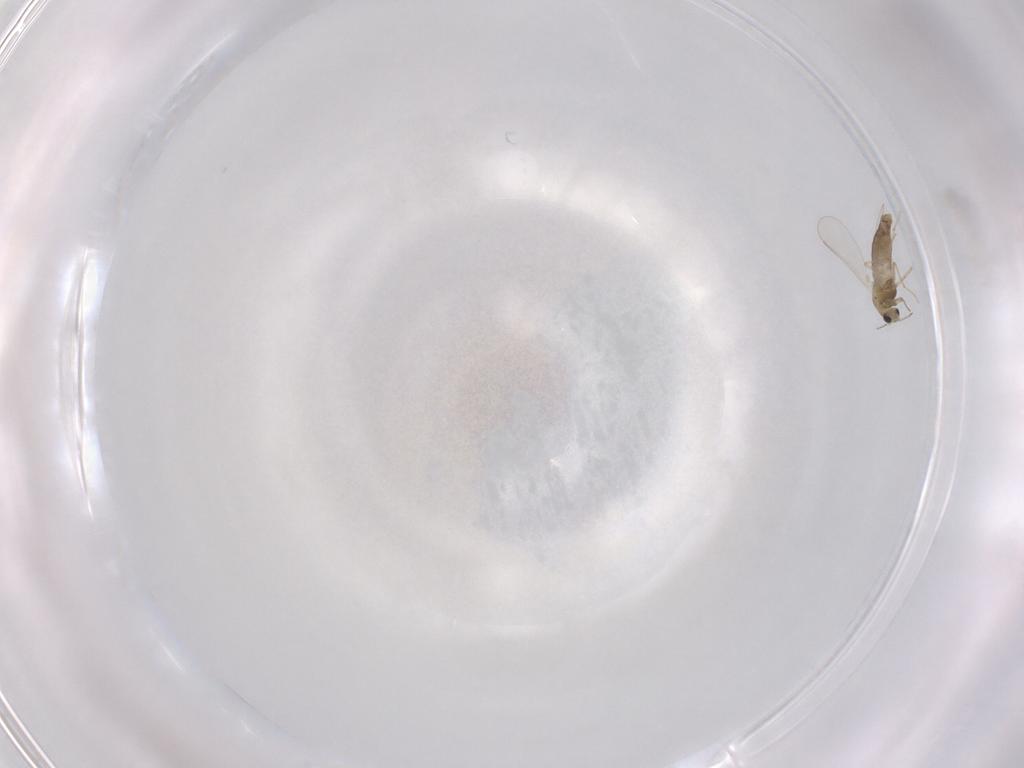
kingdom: Animalia
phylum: Arthropoda
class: Insecta
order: Diptera
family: Chironomidae
